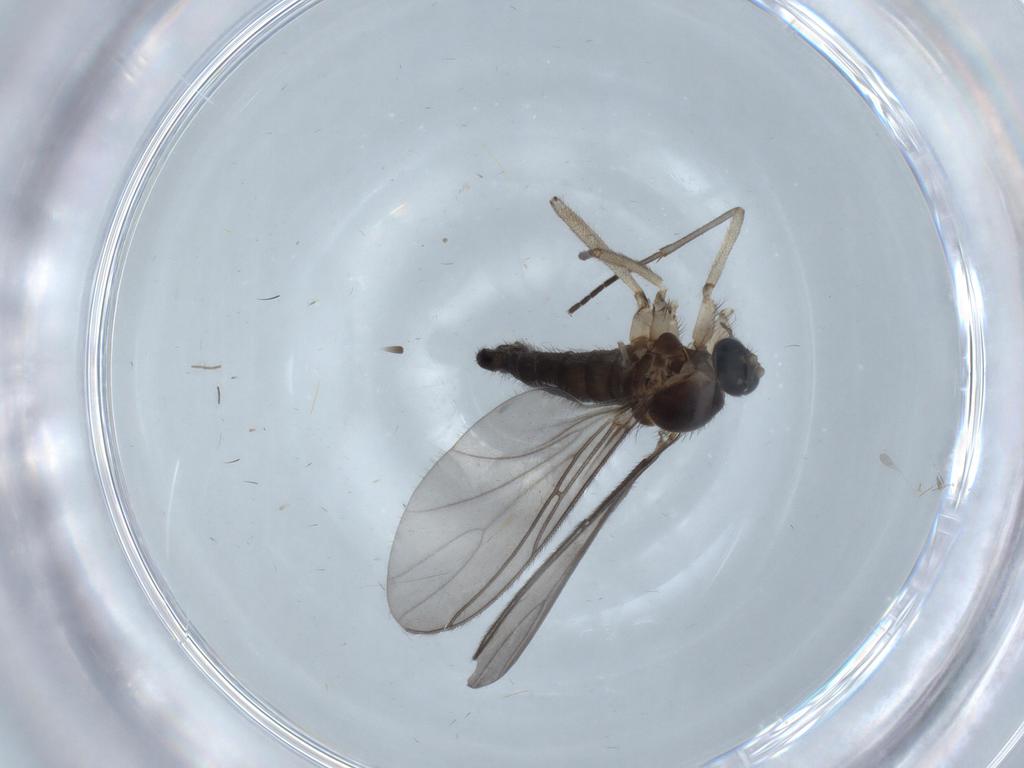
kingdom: Animalia
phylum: Arthropoda
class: Insecta
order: Diptera
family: Sciaridae
